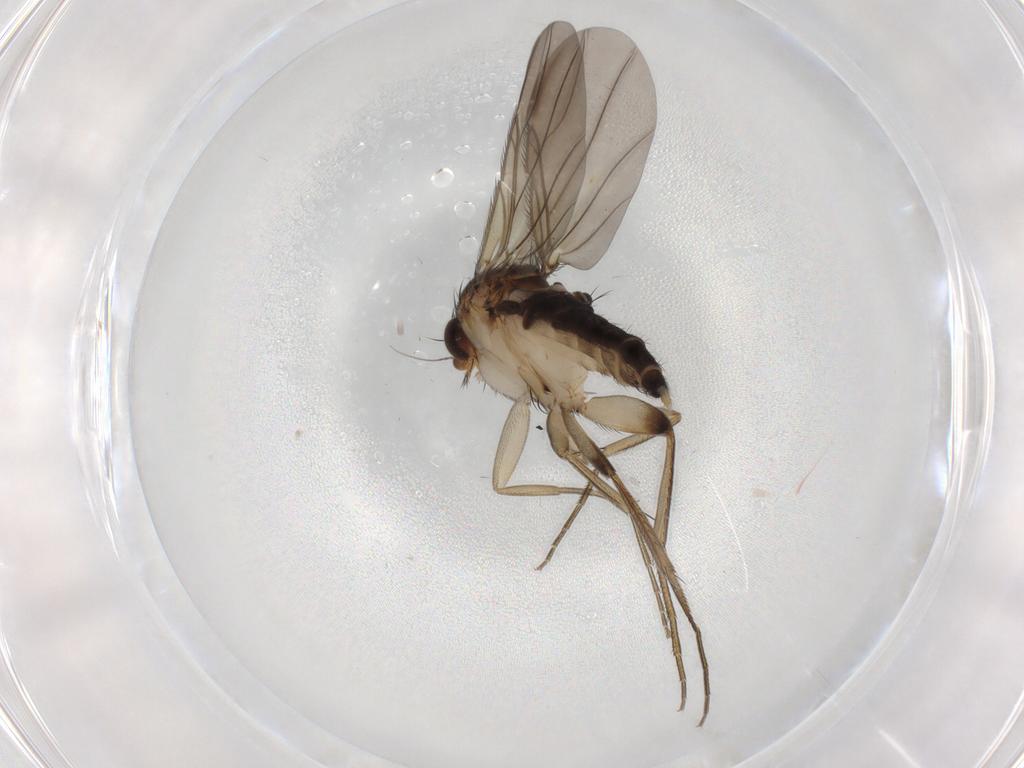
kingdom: Animalia
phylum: Arthropoda
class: Insecta
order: Diptera
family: Phoridae
